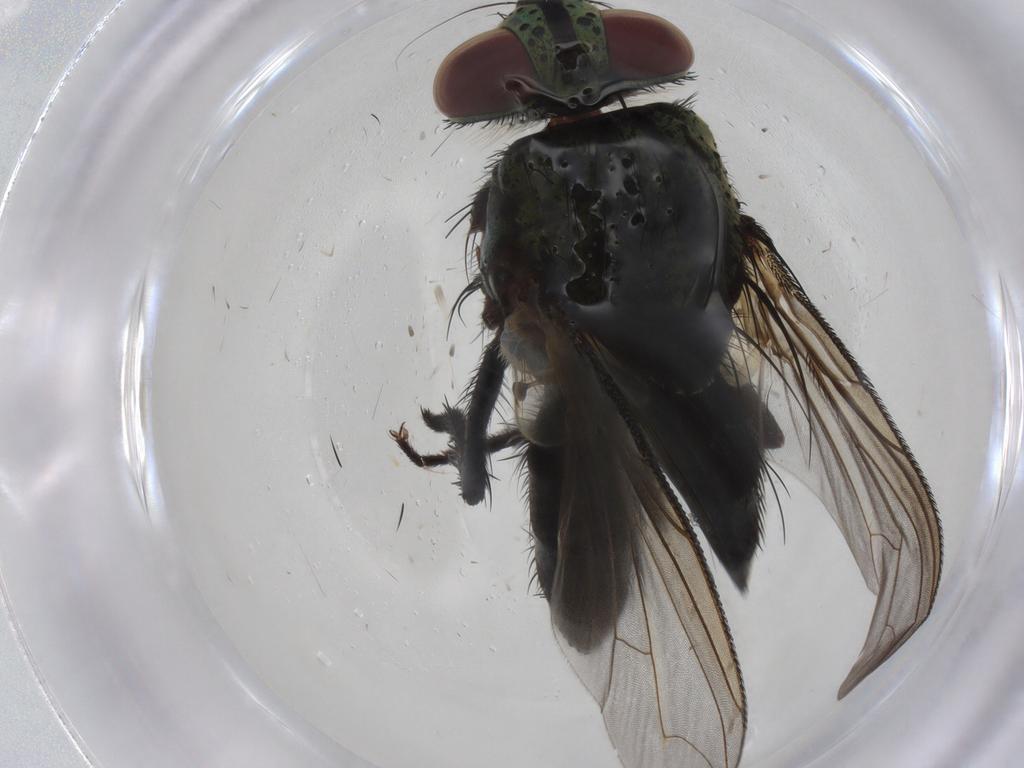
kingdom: Animalia
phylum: Arthropoda
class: Insecta
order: Diptera
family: Tachinidae
